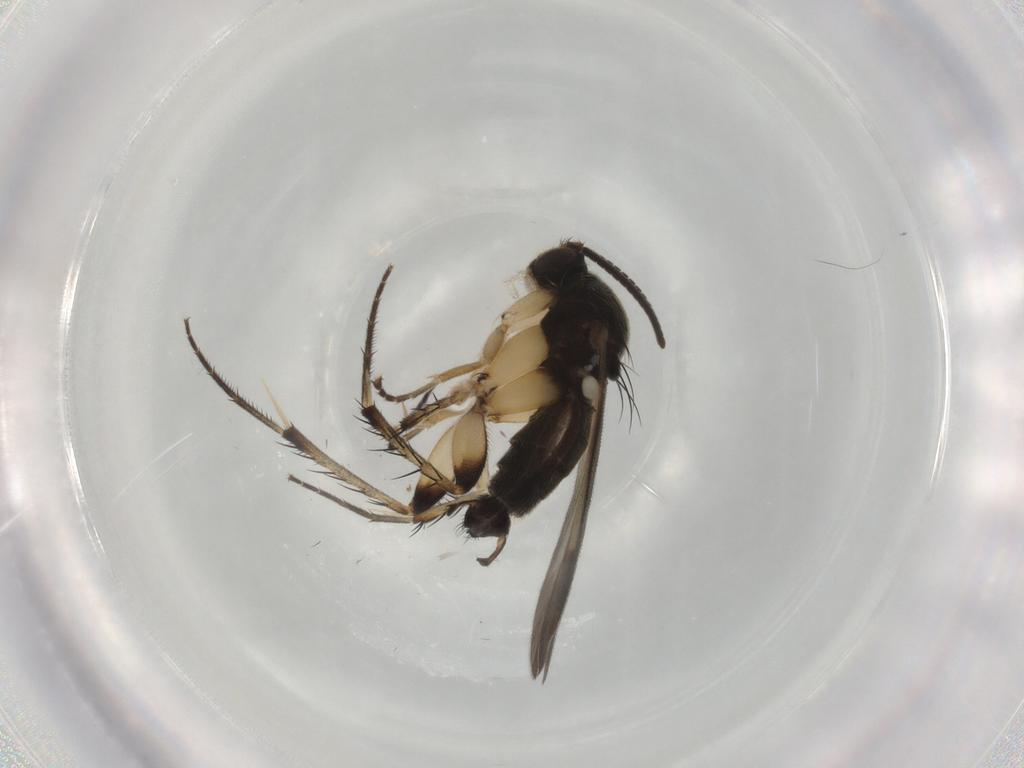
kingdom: Animalia
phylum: Arthropoda
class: Insecta
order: Diptera
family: Mycetophilidae
